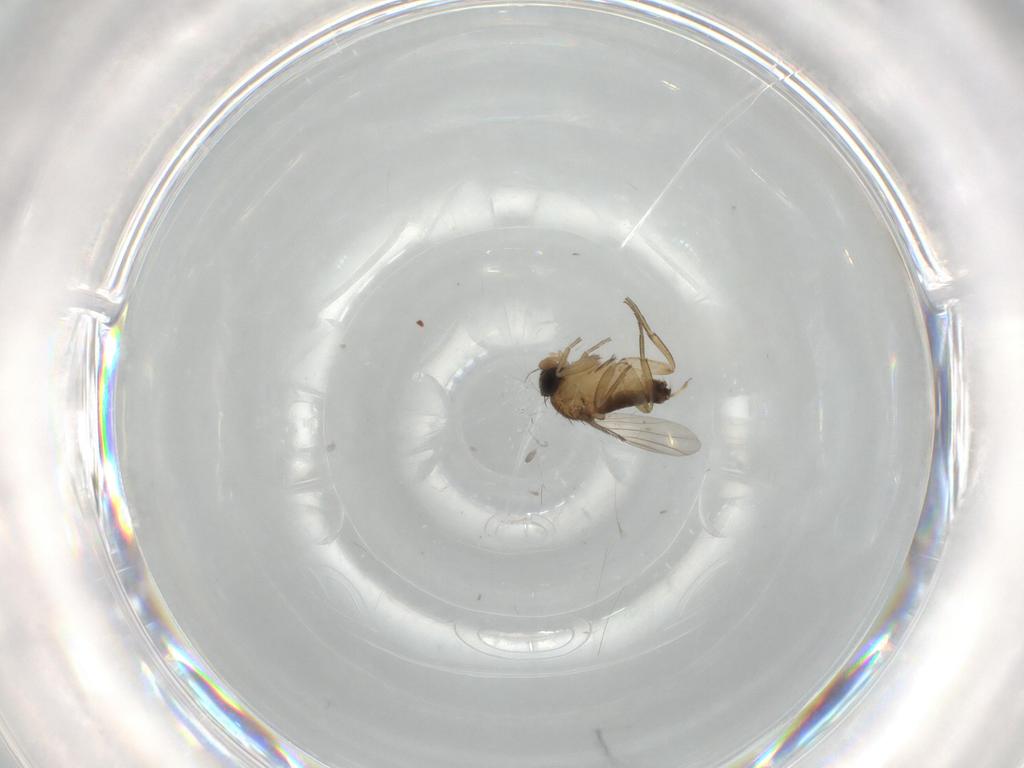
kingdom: Animalia
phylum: Arthropoda
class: Insecta
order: Diptera
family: Phoridae
